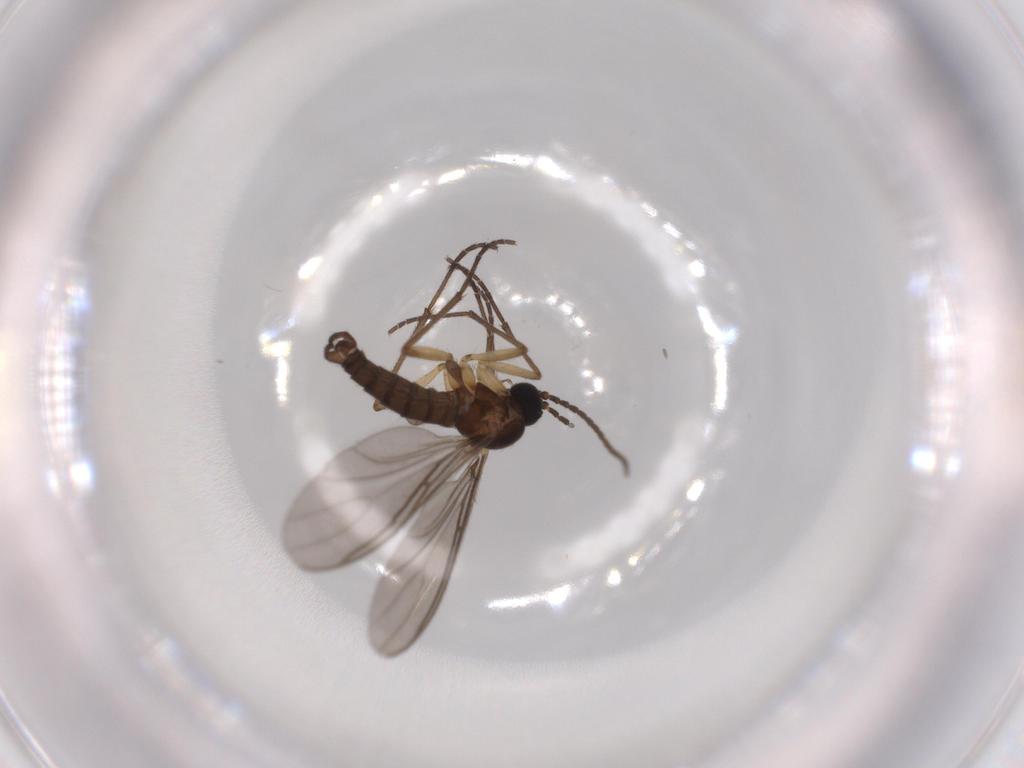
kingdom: Animalia
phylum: Arthropoda
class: Insecta
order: Diptera
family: Sciaridae
